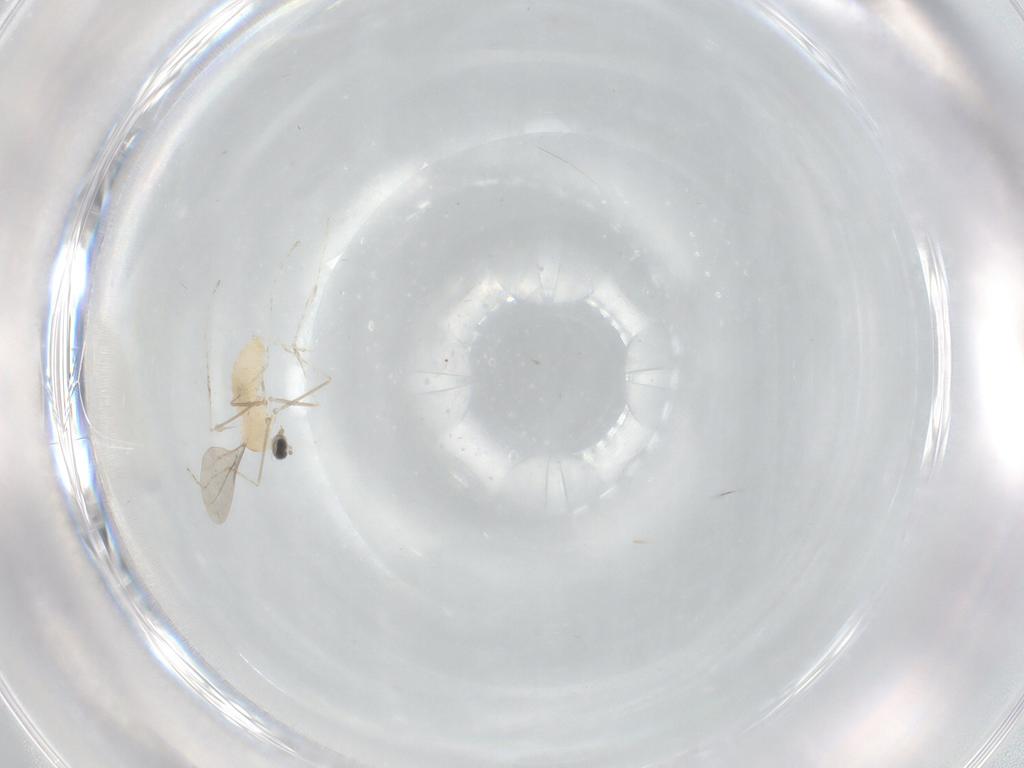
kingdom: Animalia
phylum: Arthropoda
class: Insecta
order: Diptera
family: Cecidomyiidae
